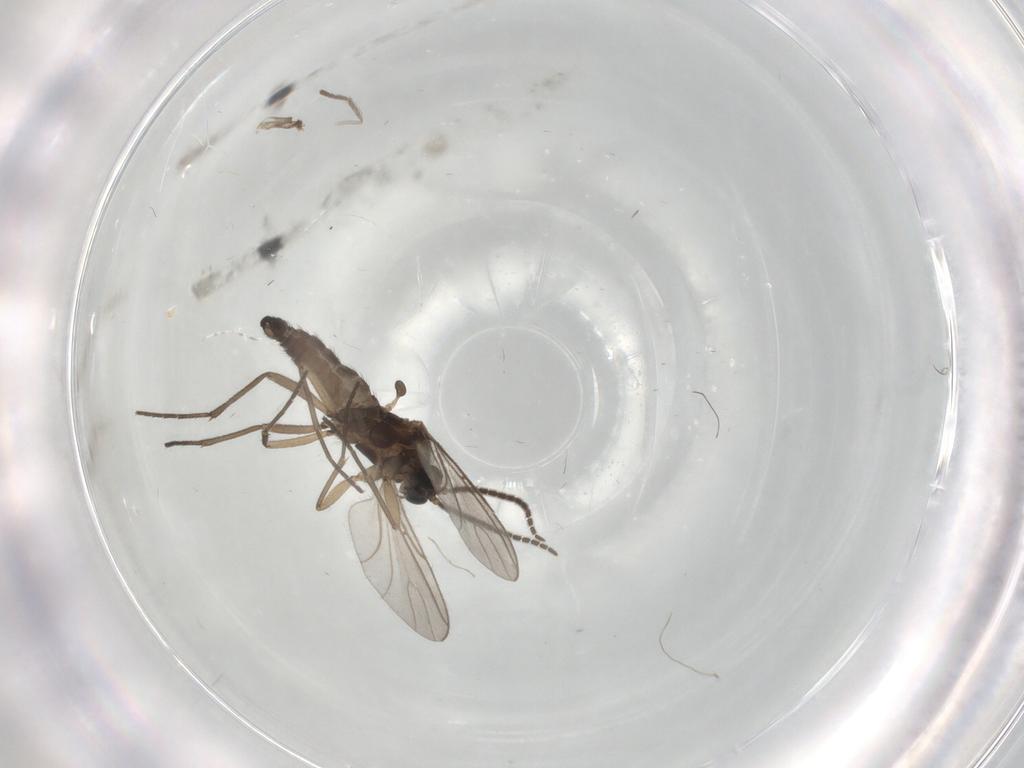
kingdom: Animalia
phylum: Arthropoda
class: Insecta
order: Diptera
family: Sciaridae
